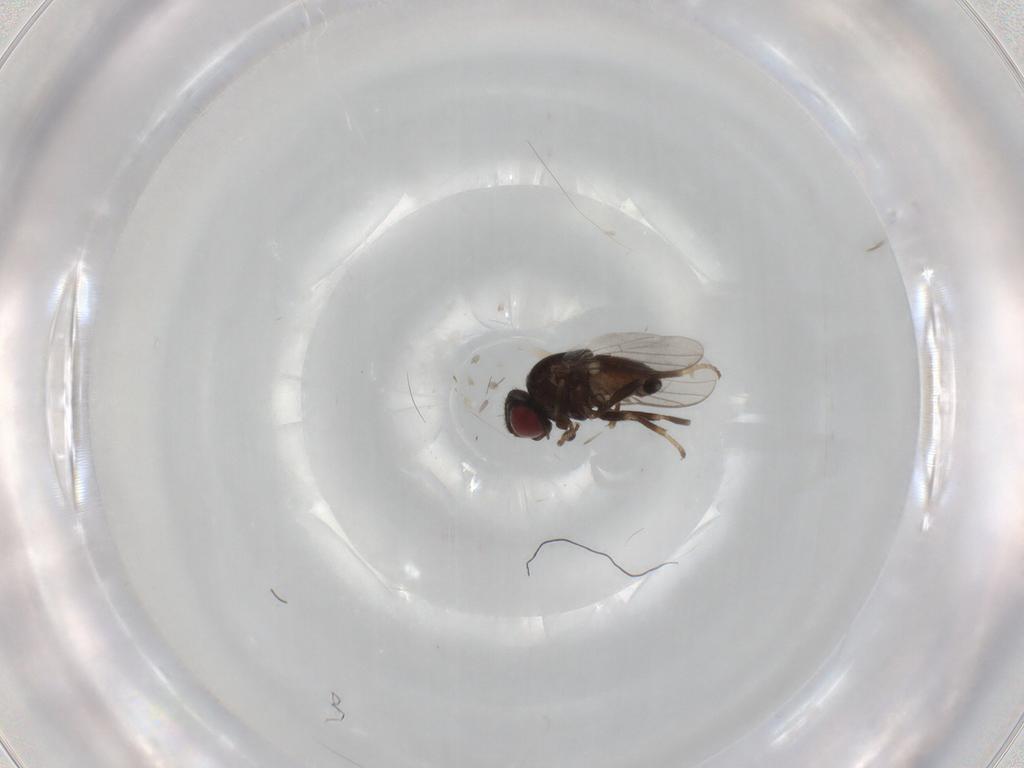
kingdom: Animalia
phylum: Arthropoda
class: Insecta
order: Diptera
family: Chloropidae
